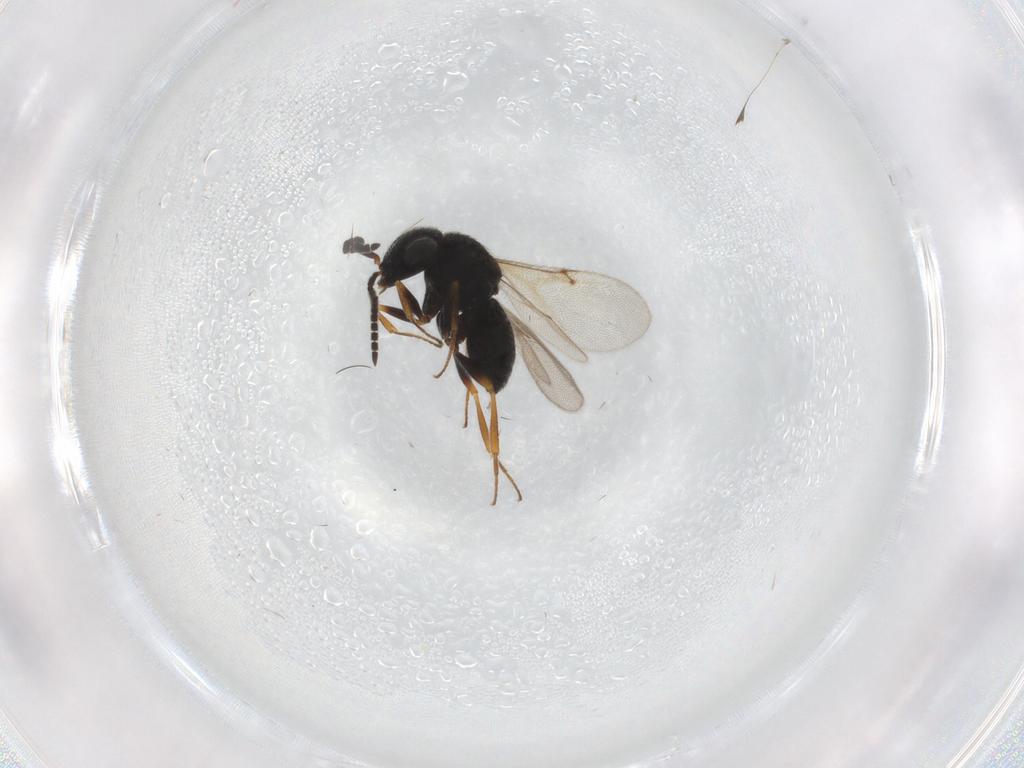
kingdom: Animalia
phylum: Arthropoda
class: Insecta
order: Hymenoptera
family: Scelionidae
